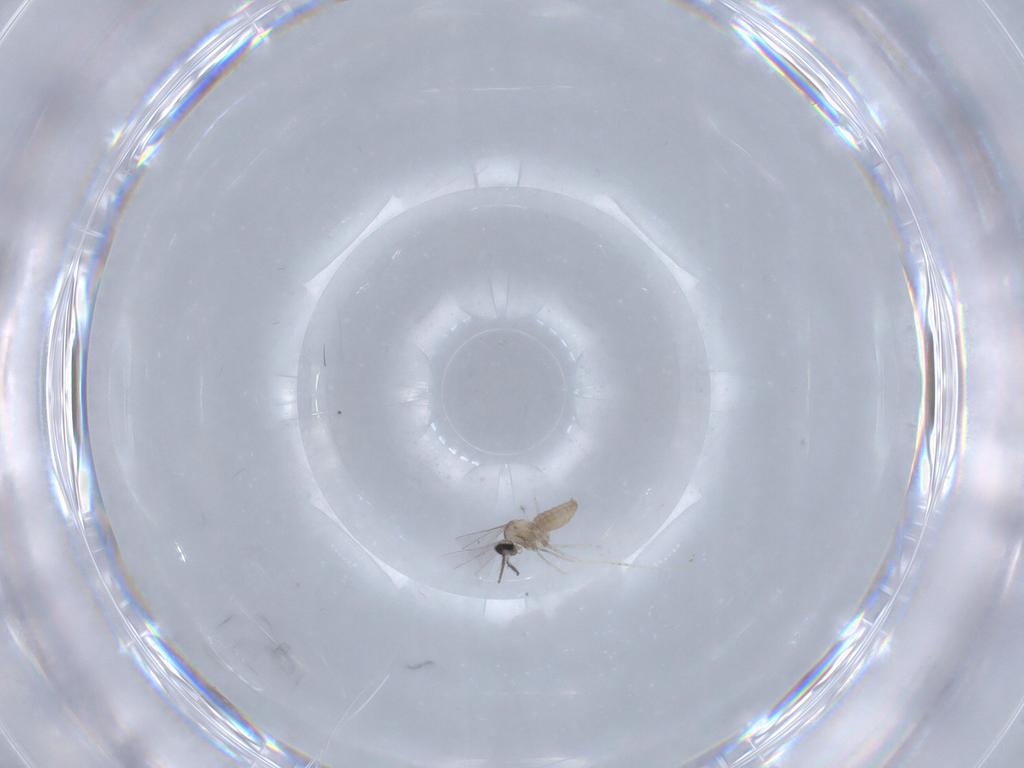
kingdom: Animalia
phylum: Arthropoda
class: Insecta
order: Diptera
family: Cecidomyiidae
